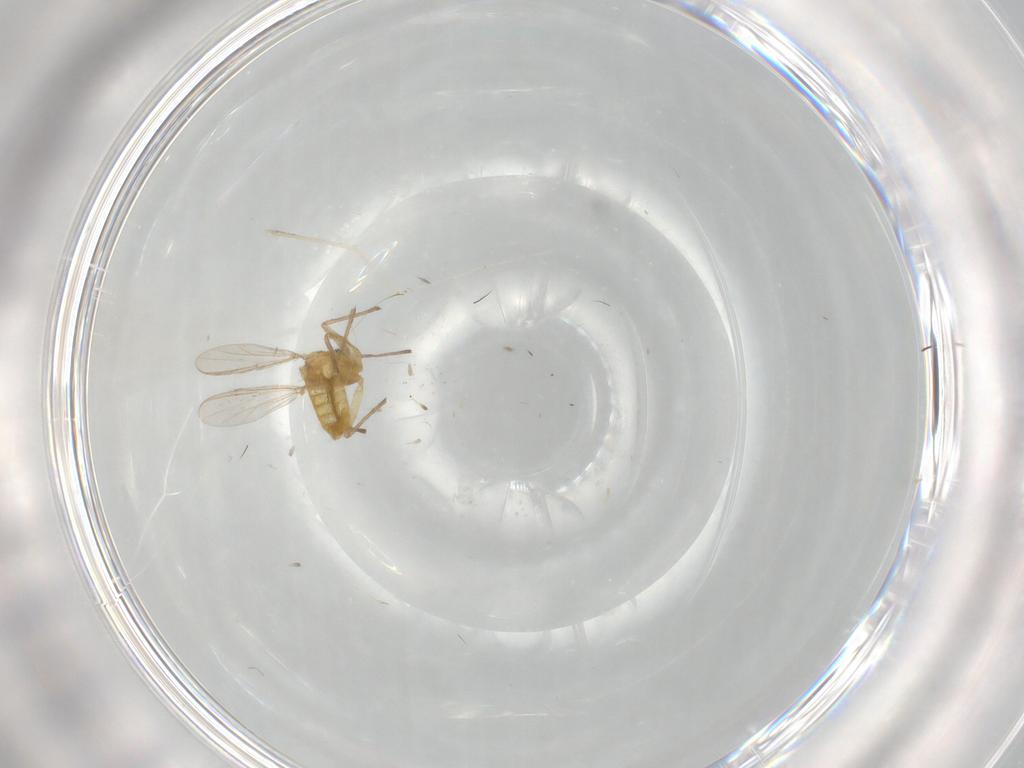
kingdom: Animalia
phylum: Arthropoda
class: Insecta
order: Diptera
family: Chironomidae
